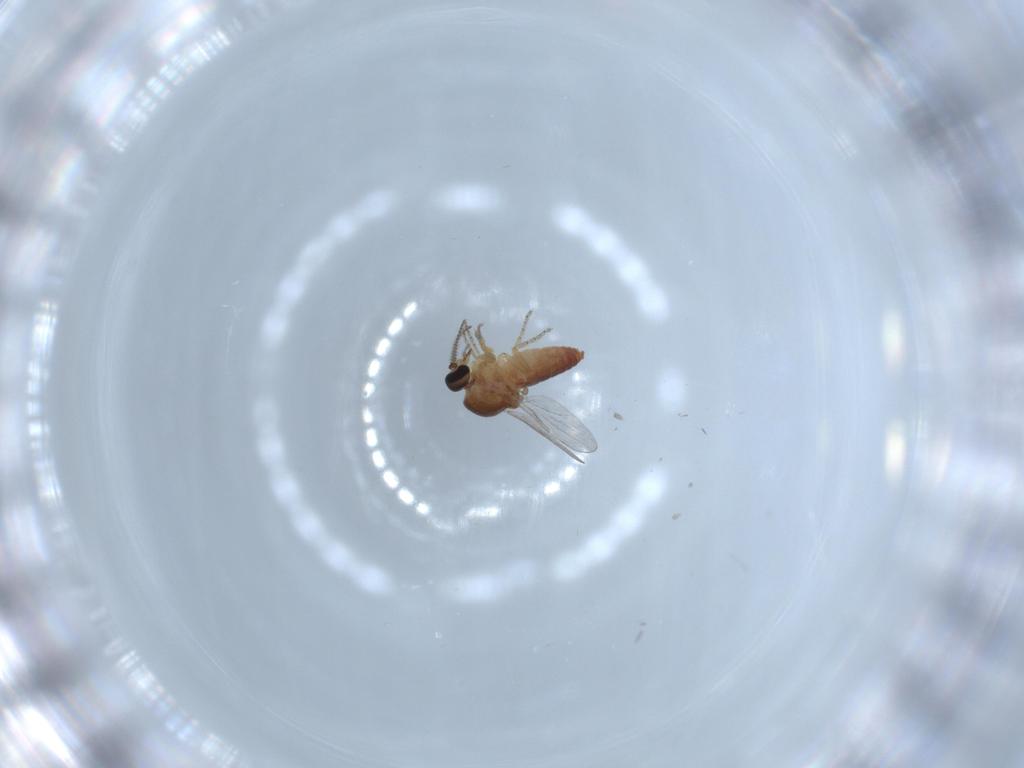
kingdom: Animalia
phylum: Arthropoda
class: Insecta
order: Diptera
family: Ceratopogonidae
